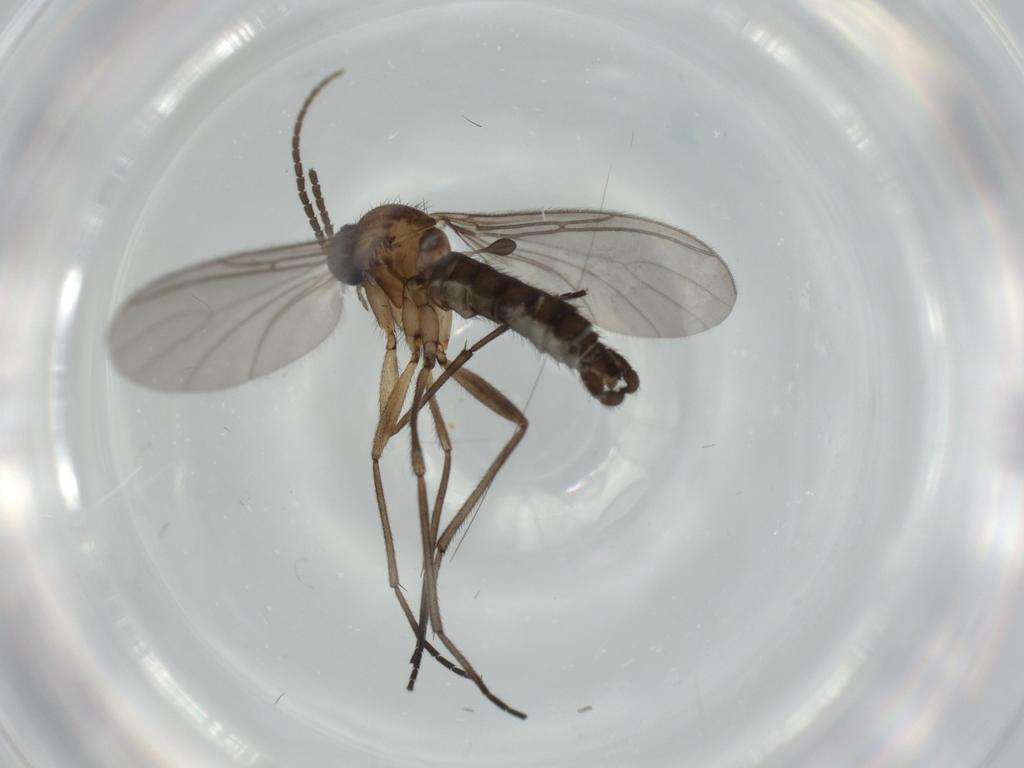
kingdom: Animalia
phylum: Arthropoda
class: Insecta
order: Diptera
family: Sciaridae
